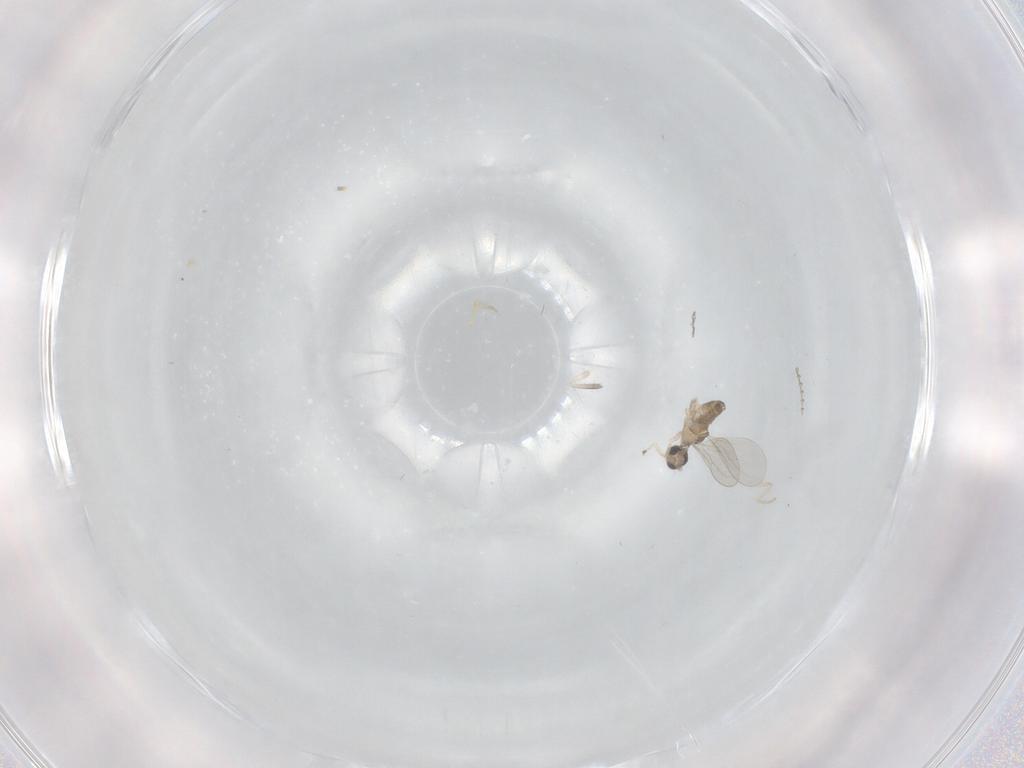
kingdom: Animalia
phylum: Arthropoda
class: Insecta
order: Diptera
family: Cecidomyiidae
